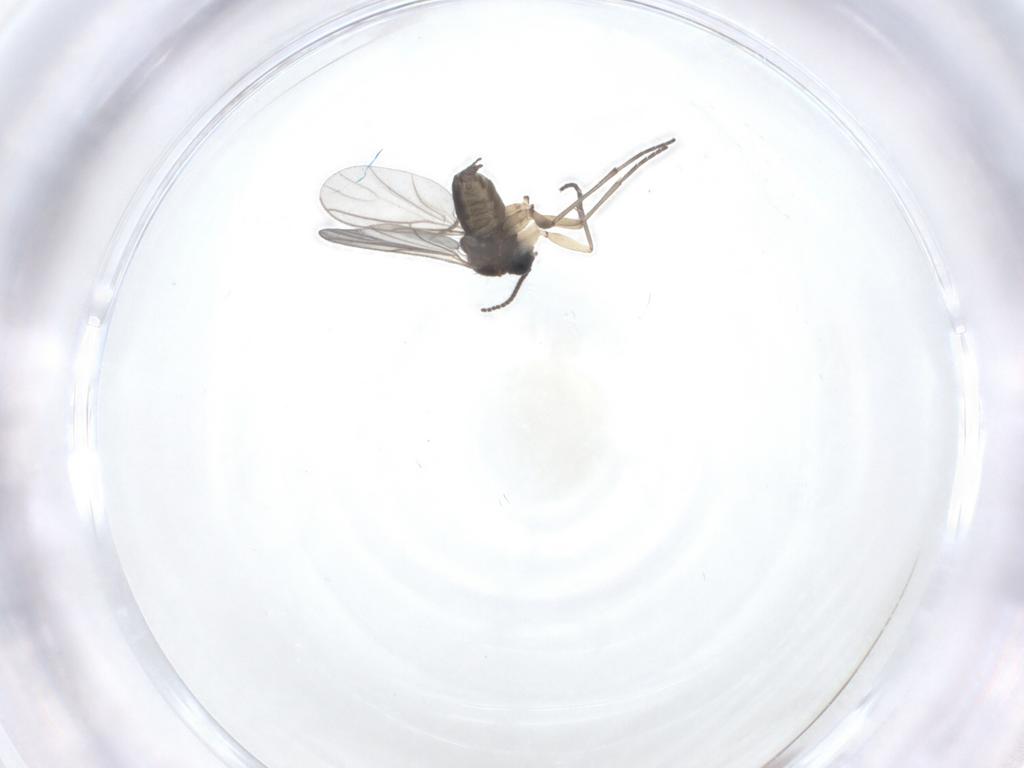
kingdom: Animalia
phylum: Arthropoda
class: Insecta
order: Diptera
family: Sciaridae
